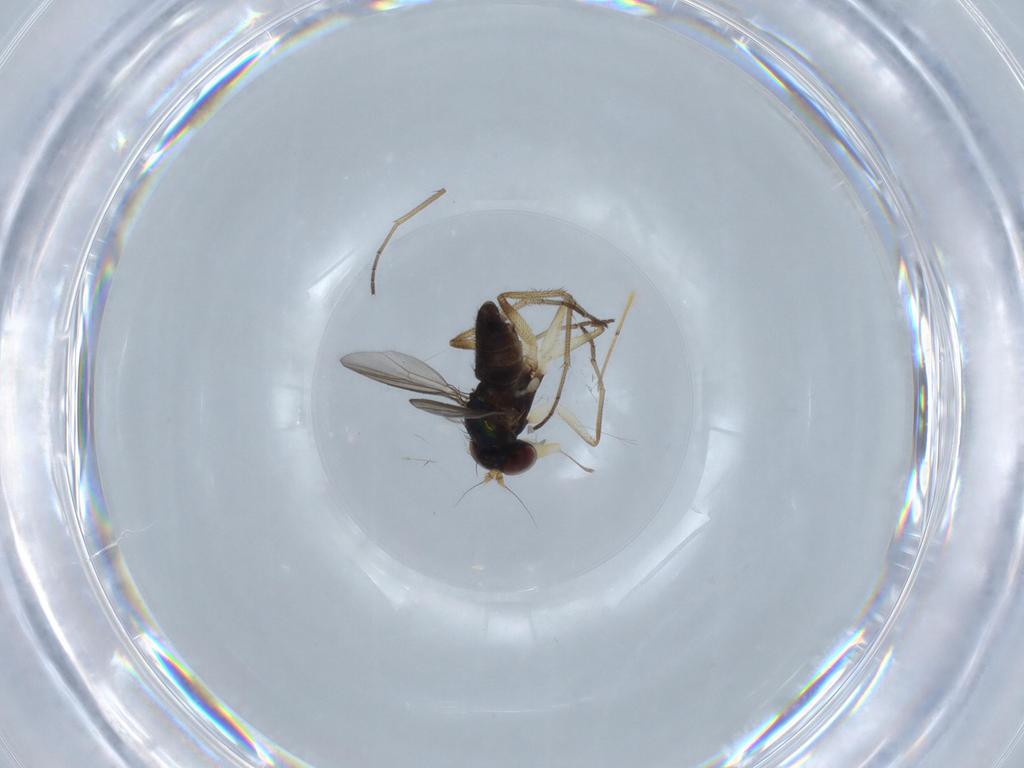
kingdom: Animalia
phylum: Arthropoda
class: Insecta
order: Diptera
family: Dolichopodidae
